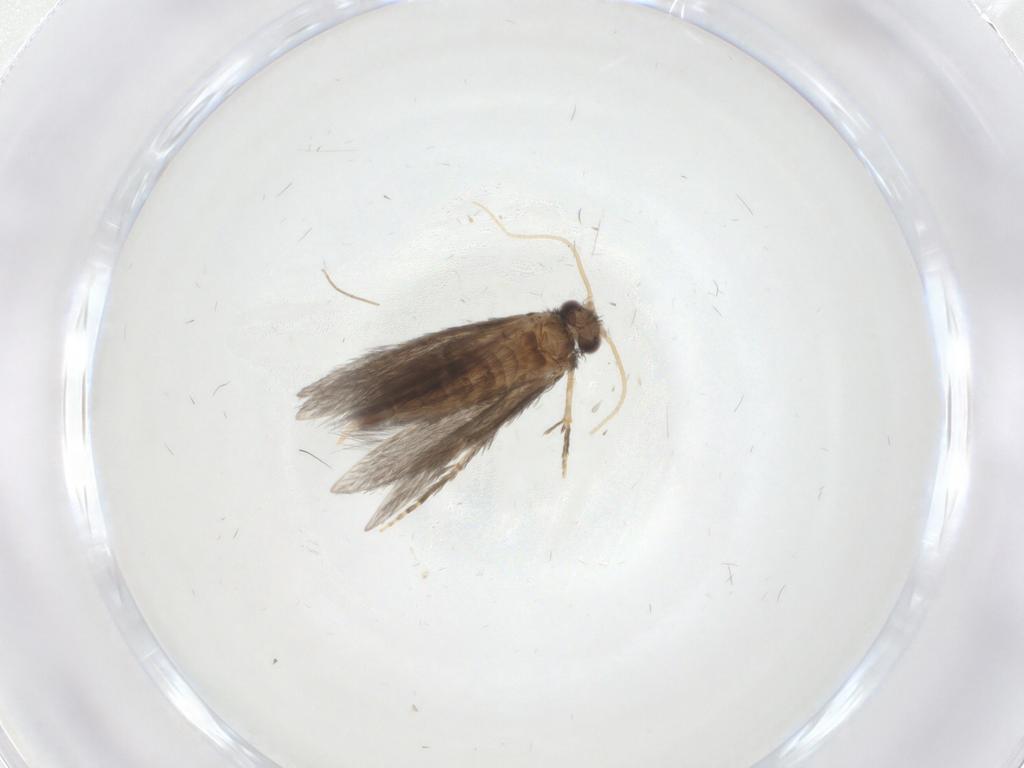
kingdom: Animalia
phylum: Arthropoda
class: Insecta
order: Trichoptera
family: Hydroptilidae
